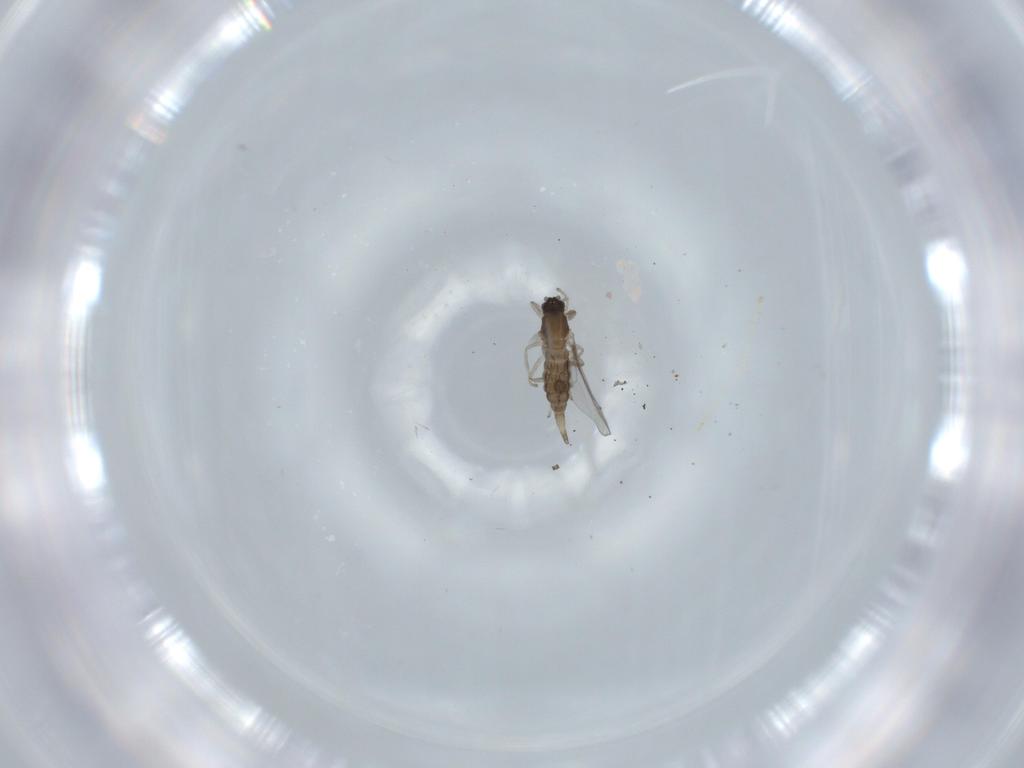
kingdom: Animalia
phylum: Arthropoda
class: Insecta
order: Diptera
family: Cecidomyiidae
